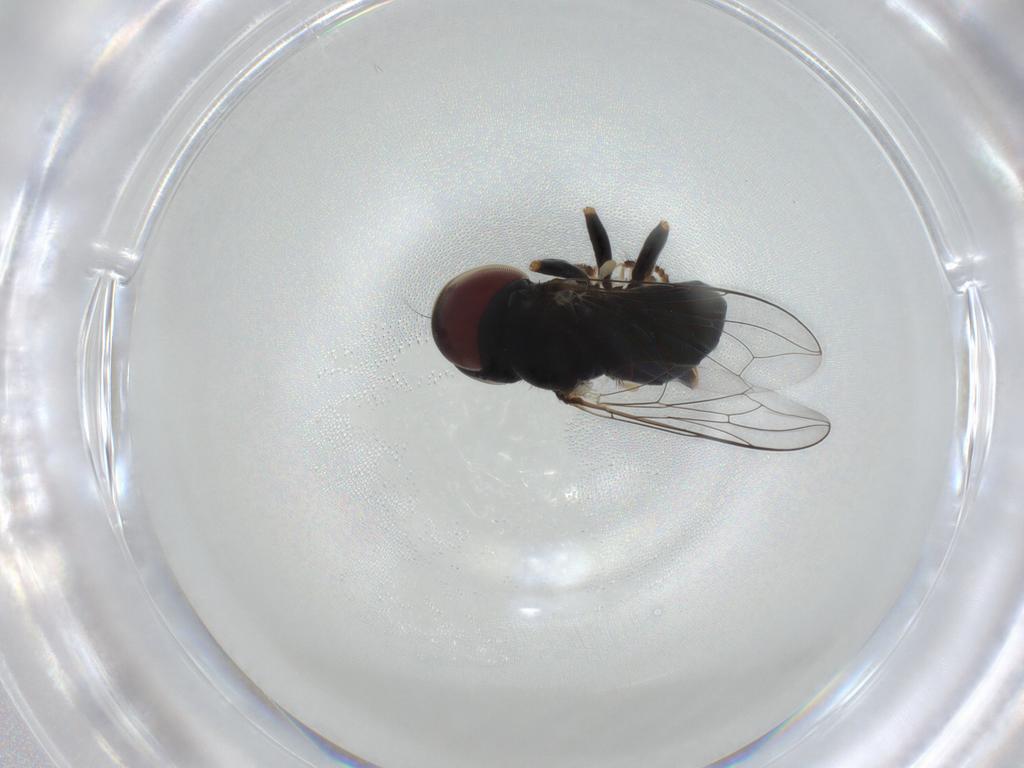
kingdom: Animalia
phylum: Arthropoda
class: Insecta
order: Diptera
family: Pipunculidae
